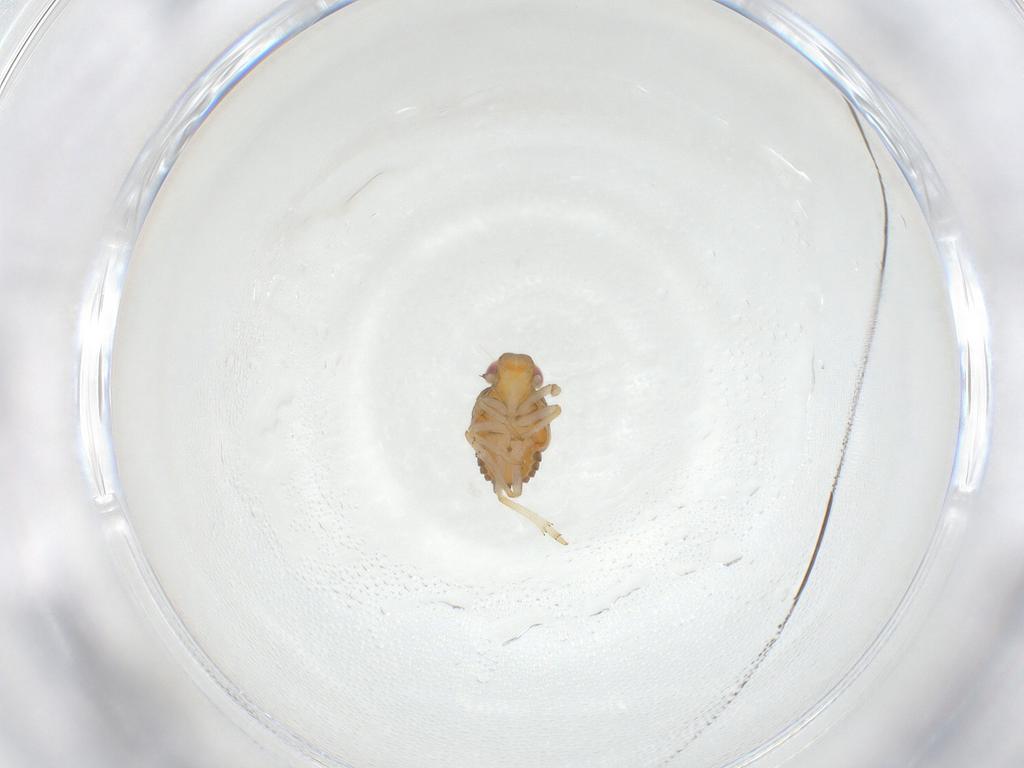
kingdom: Animalia
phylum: Arthropoda
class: Insecta
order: Hemiptera
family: Issidae
